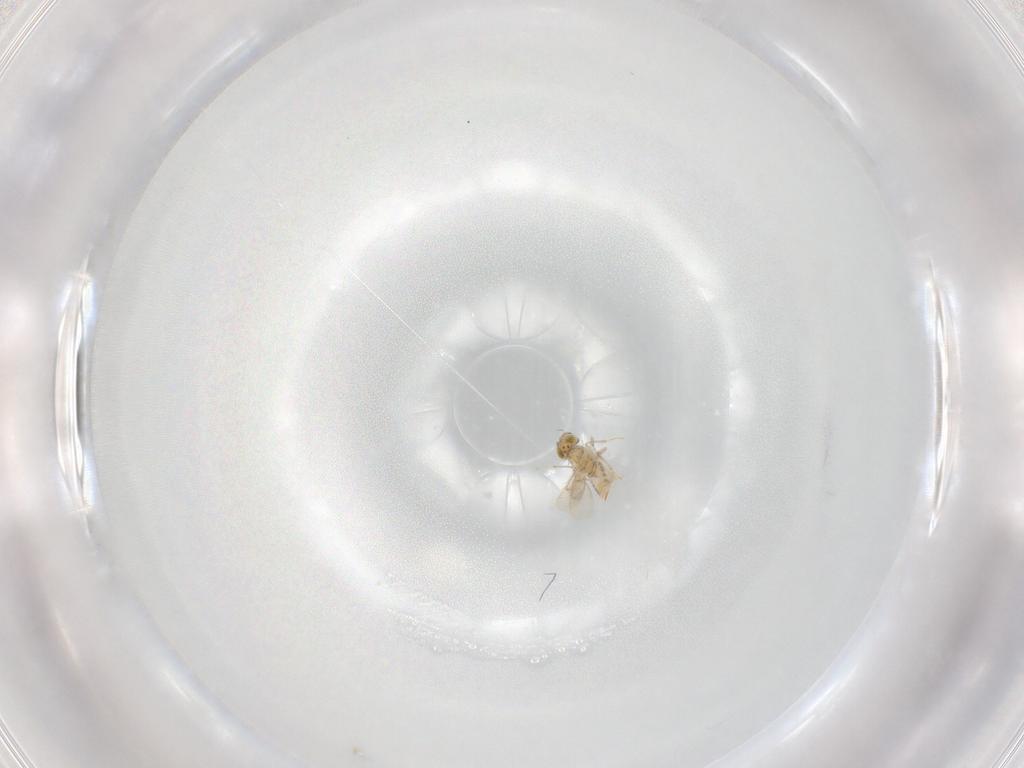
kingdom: Animalia
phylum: Arthropoda
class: Insecta
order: Hymenoptera
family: Aphelinidae
